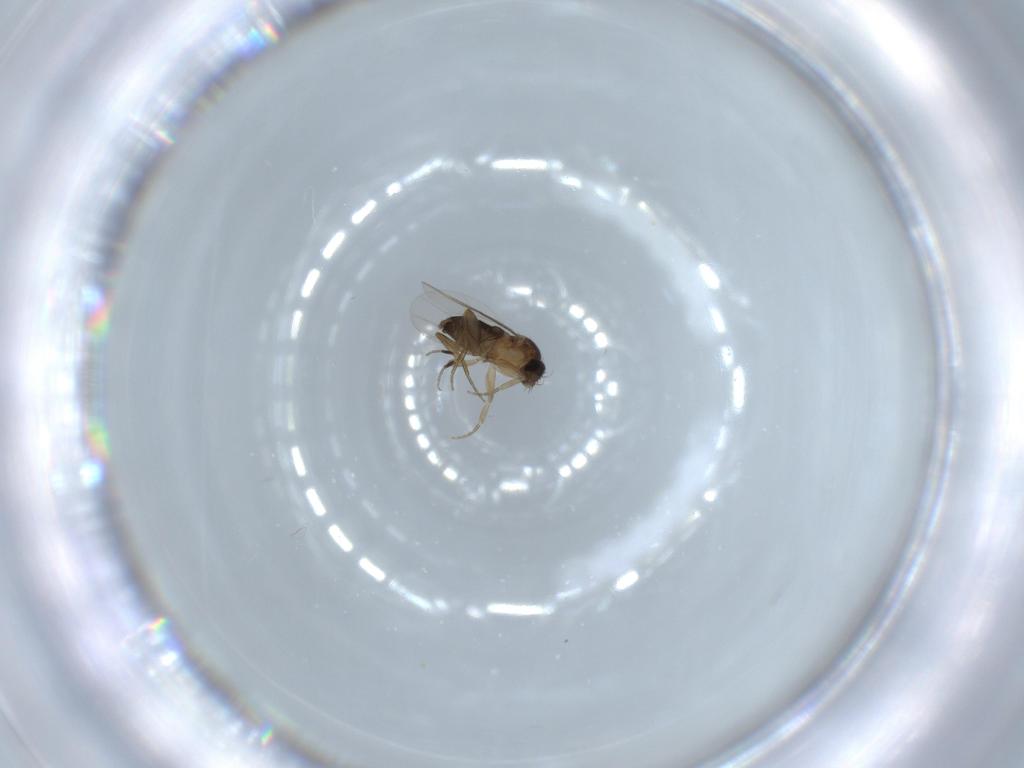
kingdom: Animalia
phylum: Arthropoda
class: Insecta
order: Diptera
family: Phoridae
